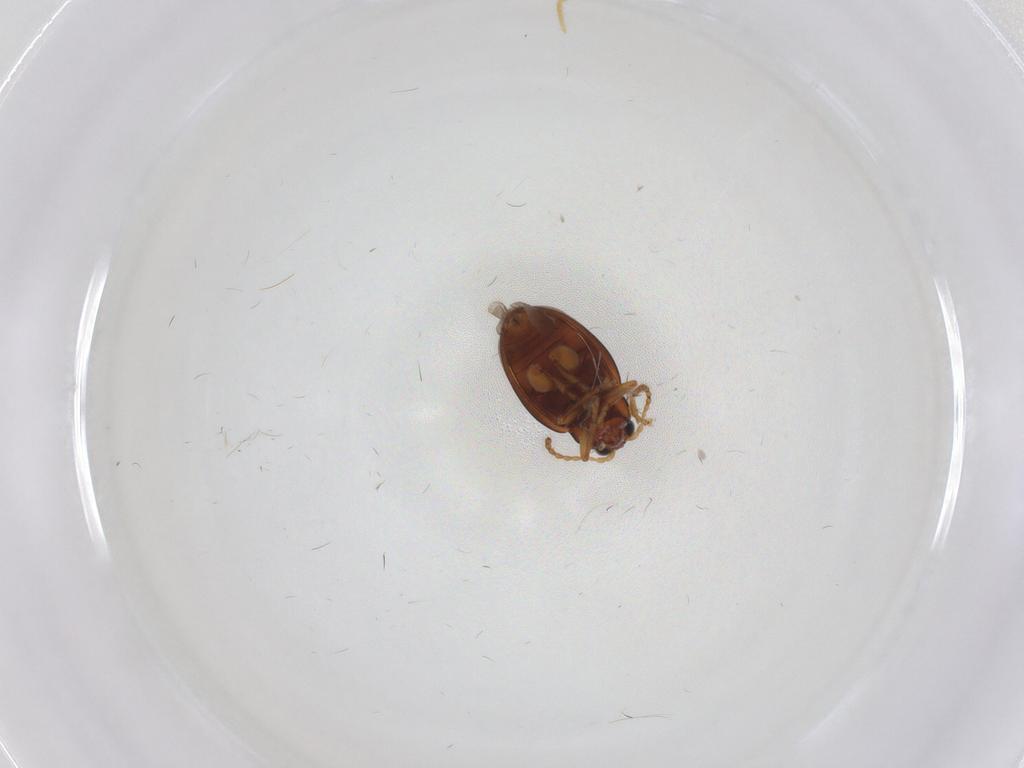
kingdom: Animalia
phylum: Arthropoda
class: Insecta
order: Coleoptera
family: Chrysomelidae
